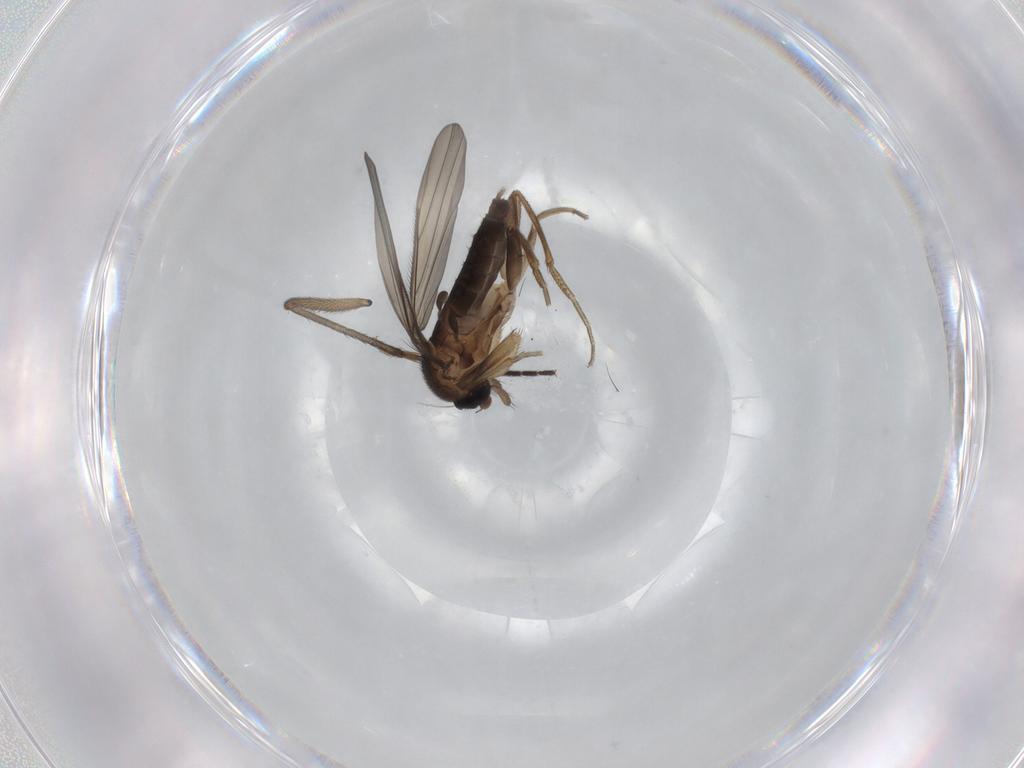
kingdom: Animalia
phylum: Arthropoda
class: Insecta
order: Diptera
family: Phoridae
